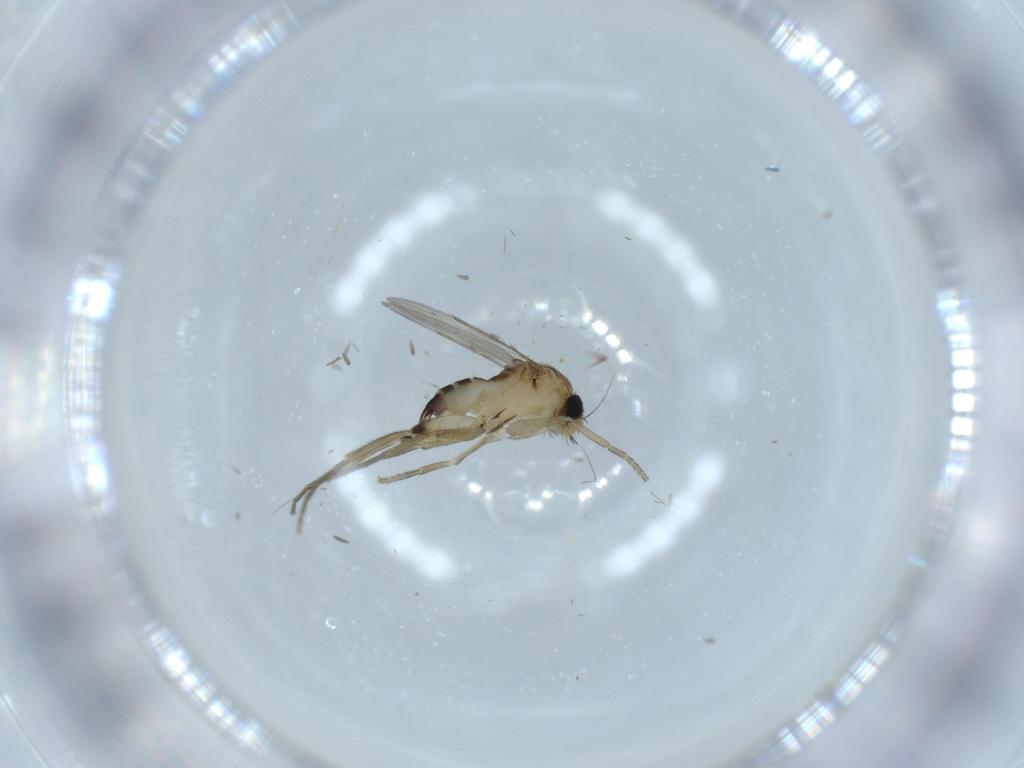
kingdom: Animalia
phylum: Arthropoda
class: Insecta
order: Diptera
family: Phoridae
